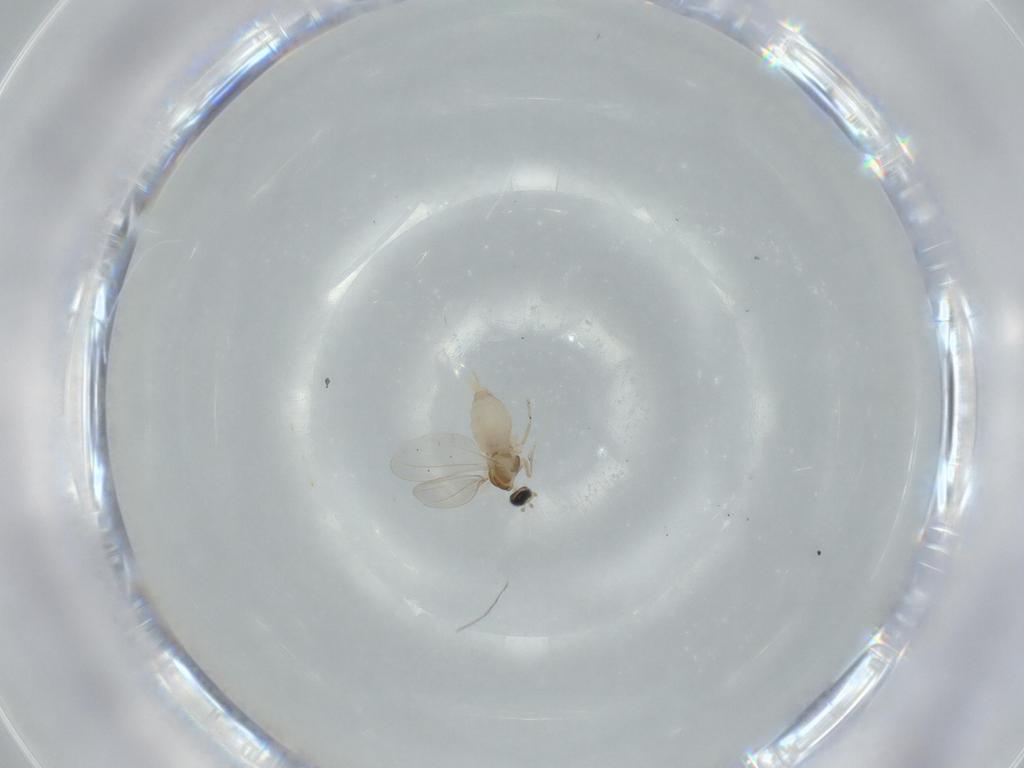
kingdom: Animalia
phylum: Arthropoda
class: Insecta
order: Diptera
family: Cecidomyiidae
